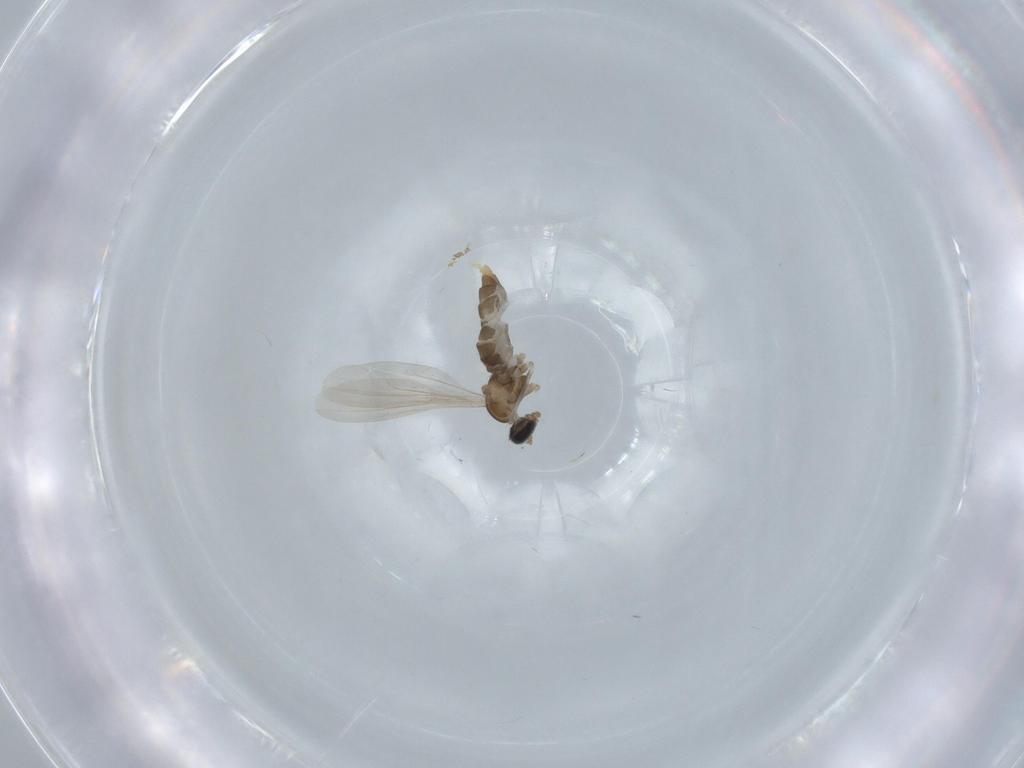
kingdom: Animalia
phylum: Arthropoda
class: Insecta
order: Diptera
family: Cecidomyiidae
